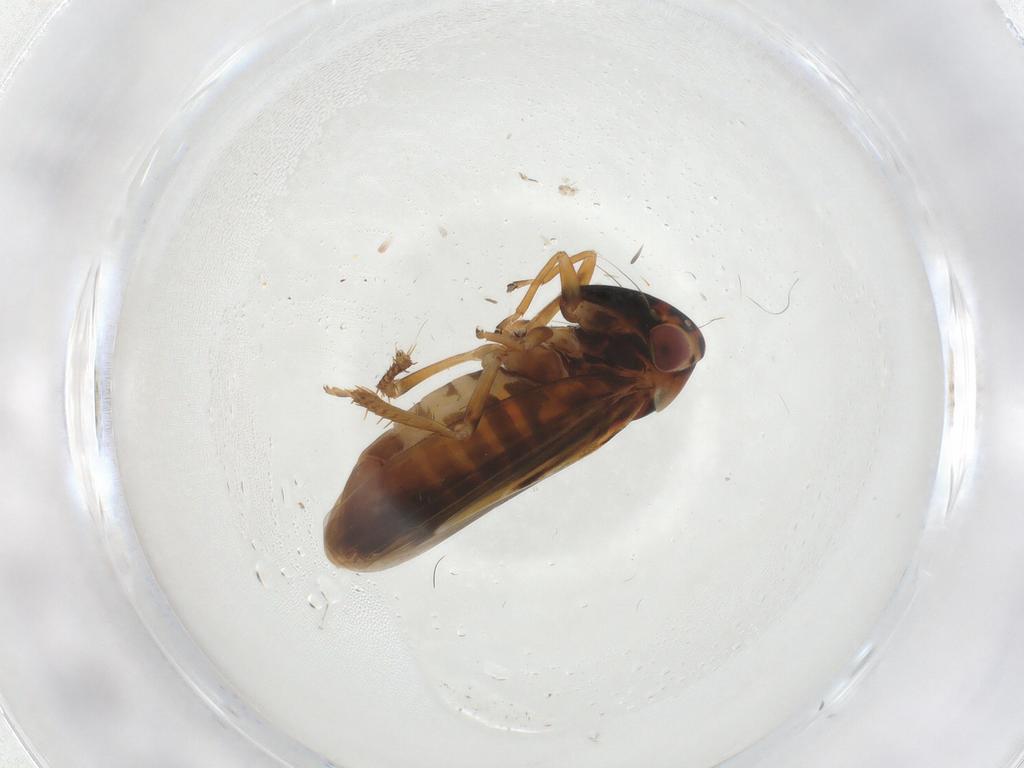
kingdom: Animalia
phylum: Arthropoda
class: Insecta
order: Hemiptera
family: Cicadellidae
